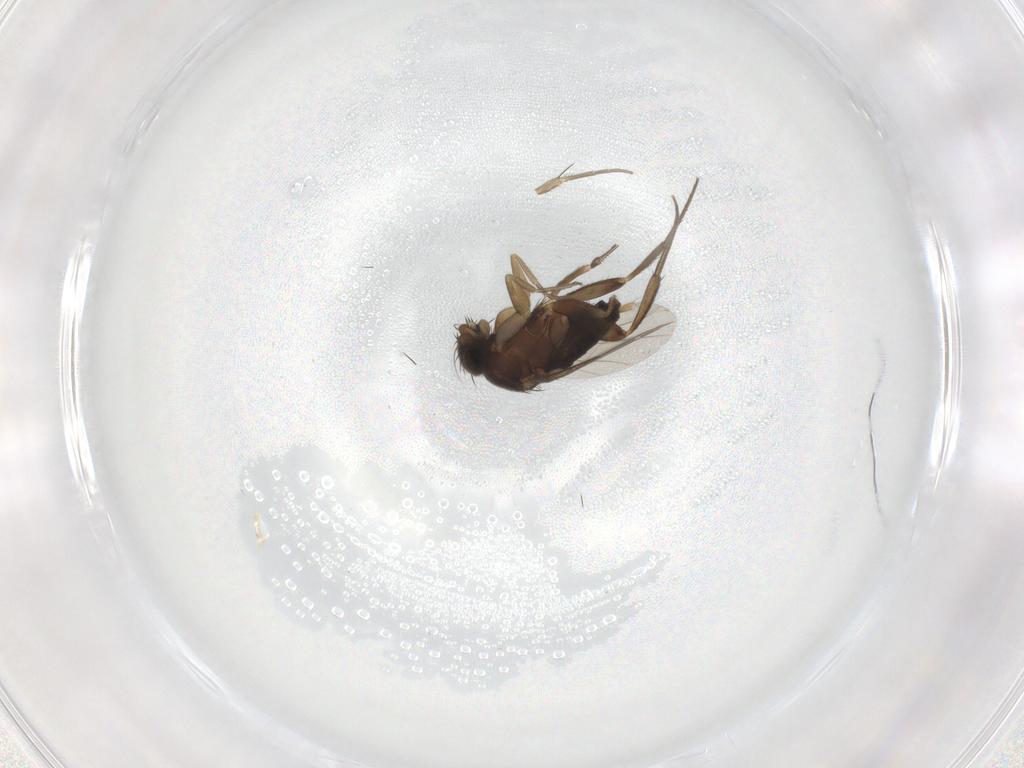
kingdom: Animalia
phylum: Arthropoda
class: Insecta
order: Diptera
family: Phoridae
